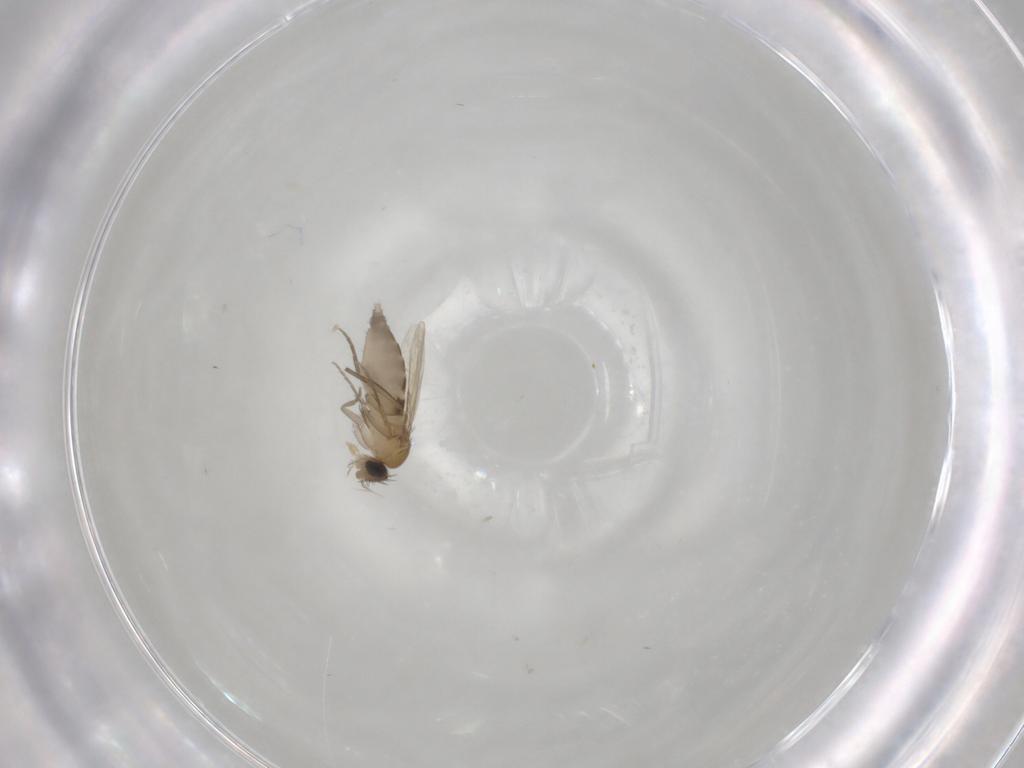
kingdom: Animalia
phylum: Arthropoda
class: Insecta
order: Diptera
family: Phoridae
